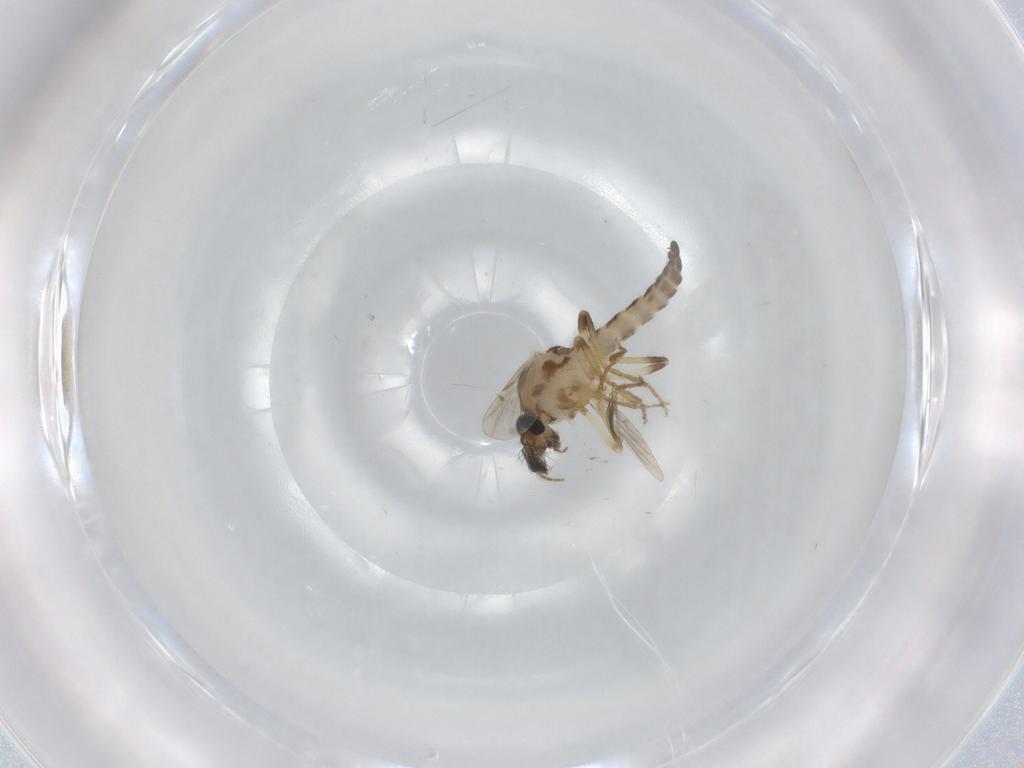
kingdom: Animalia
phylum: Arthropoda
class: Insecta
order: Diptera
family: Ceratopogonidae
